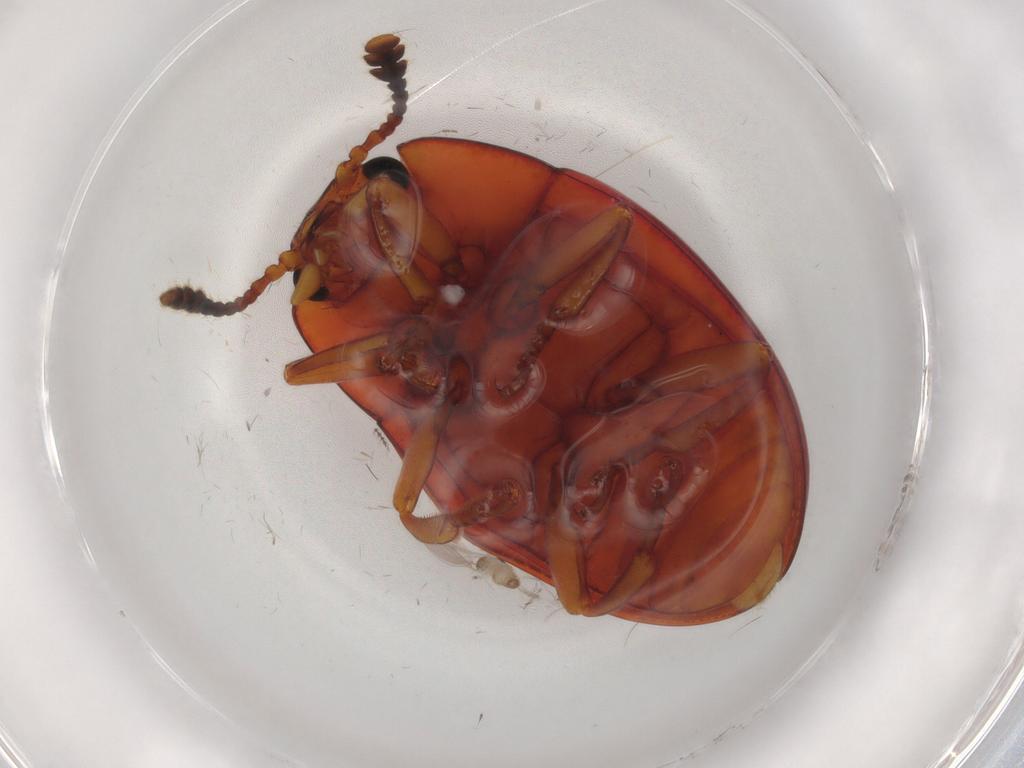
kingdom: Animalia
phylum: Arthropoda
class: Insecta
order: Coleoptera
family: Erotylidae
